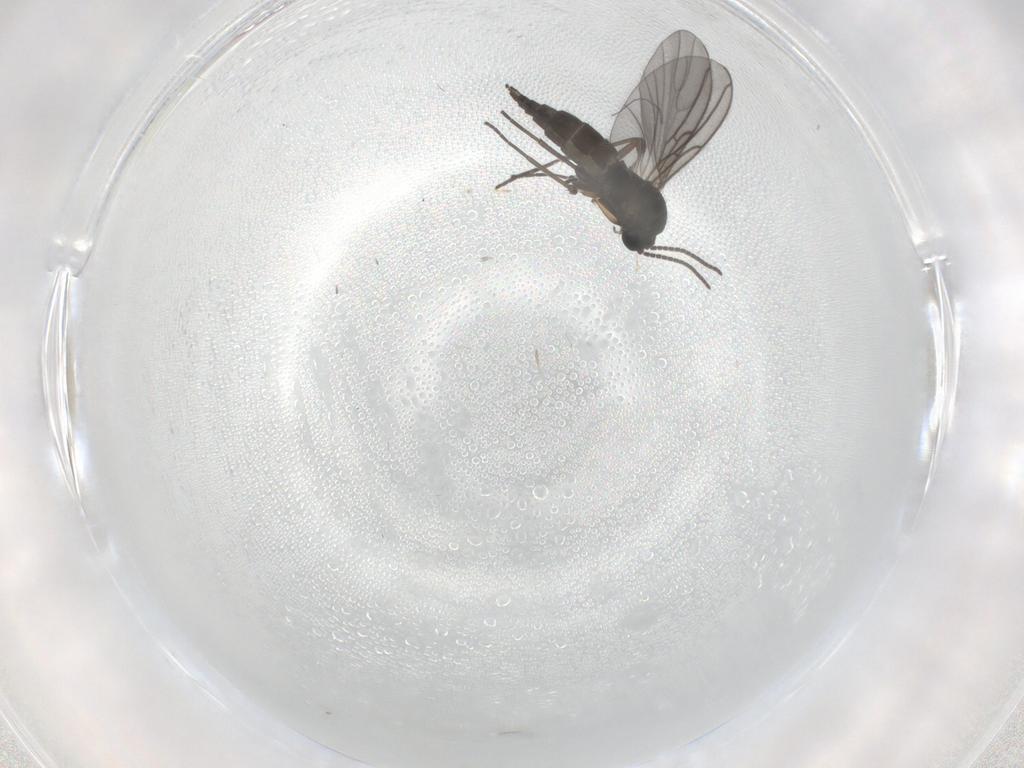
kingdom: Animalia
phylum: Arthropoda
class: Insecta
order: Diptera
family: Sciaridae
